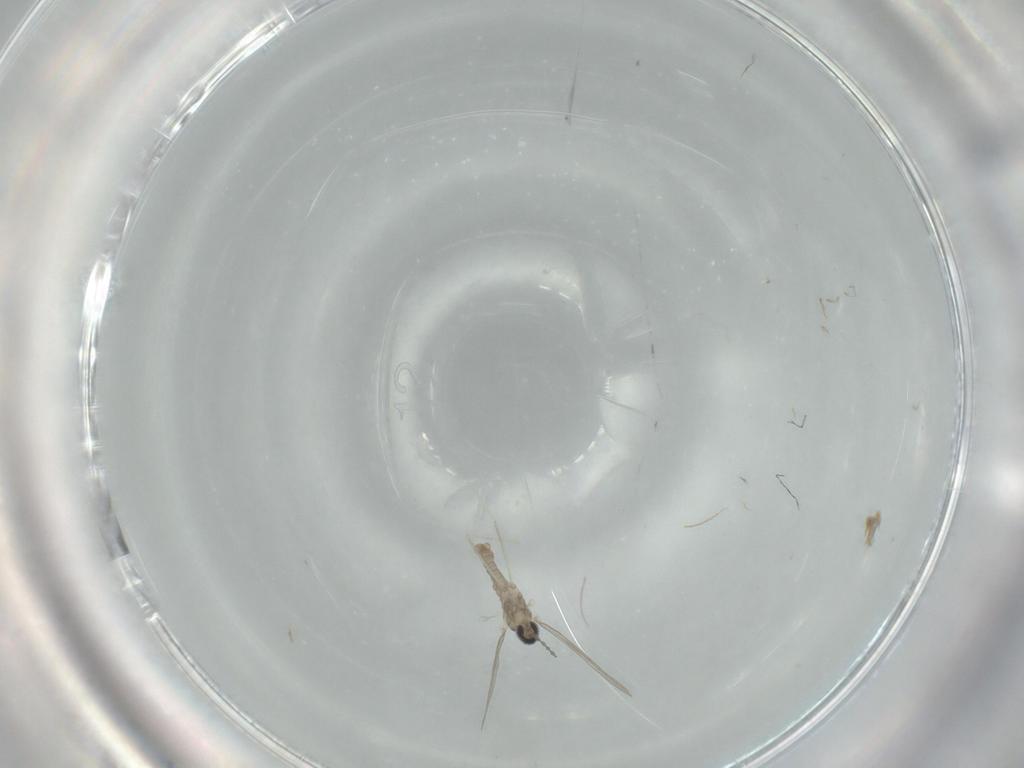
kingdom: Animalia
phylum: Arthropoda
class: Insecta
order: Diptera
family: Cecidomyiidae
